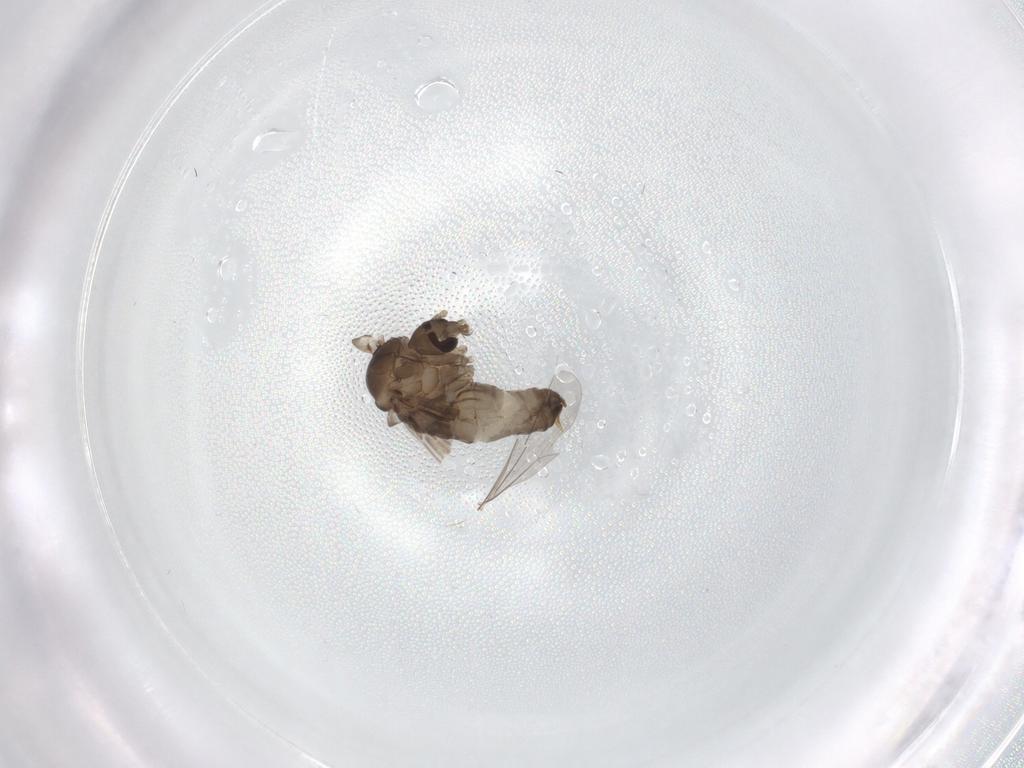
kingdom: Animalia
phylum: Arthropoda
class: Insecta
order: Diptera
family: Psychodidae
